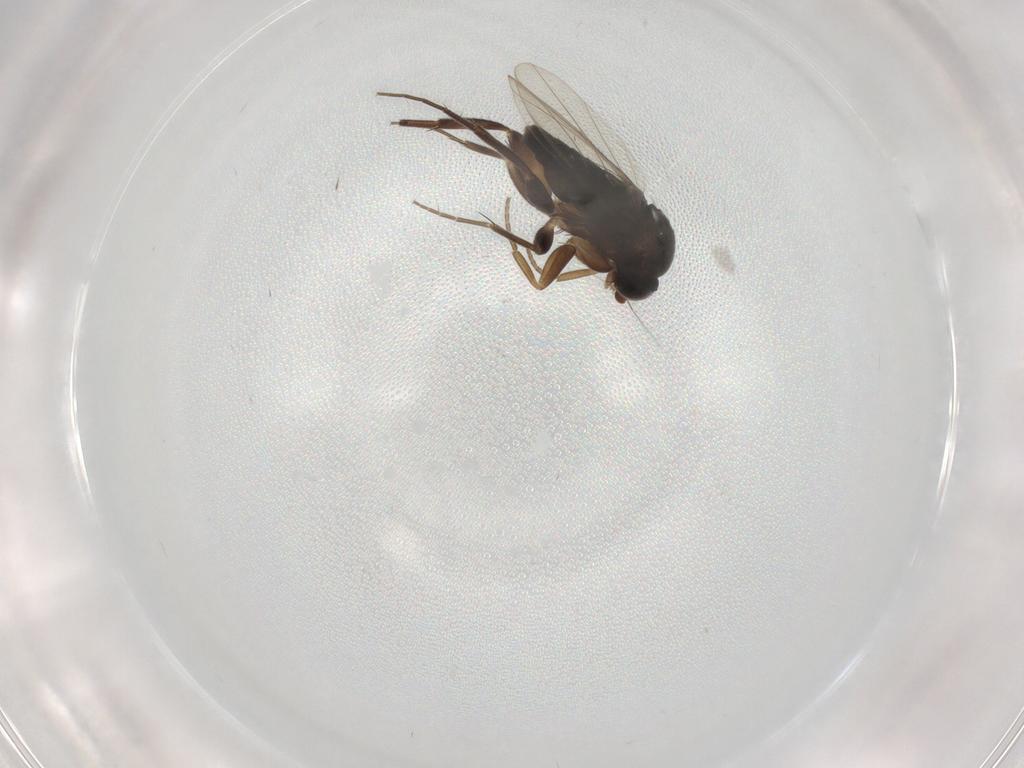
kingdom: Animalia
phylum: Arthropoda
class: Insecta
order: Diptera
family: Phoridae
